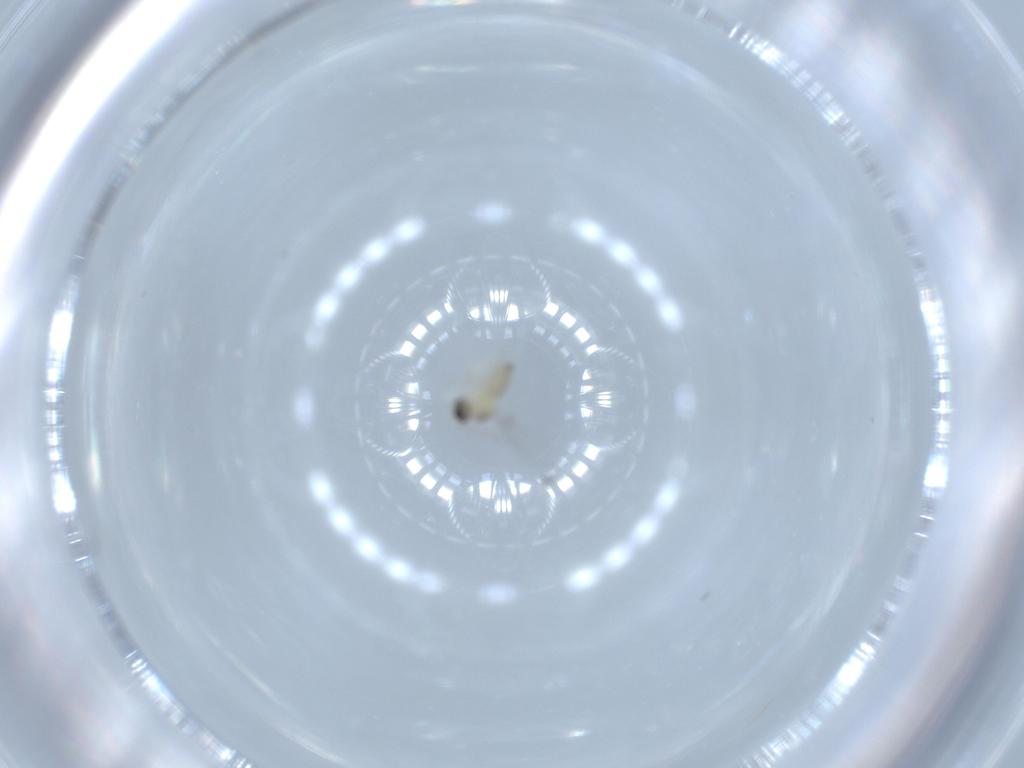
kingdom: Animalia
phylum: Arthropoda
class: Insecta
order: Diptera
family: Cecidomyiidae
